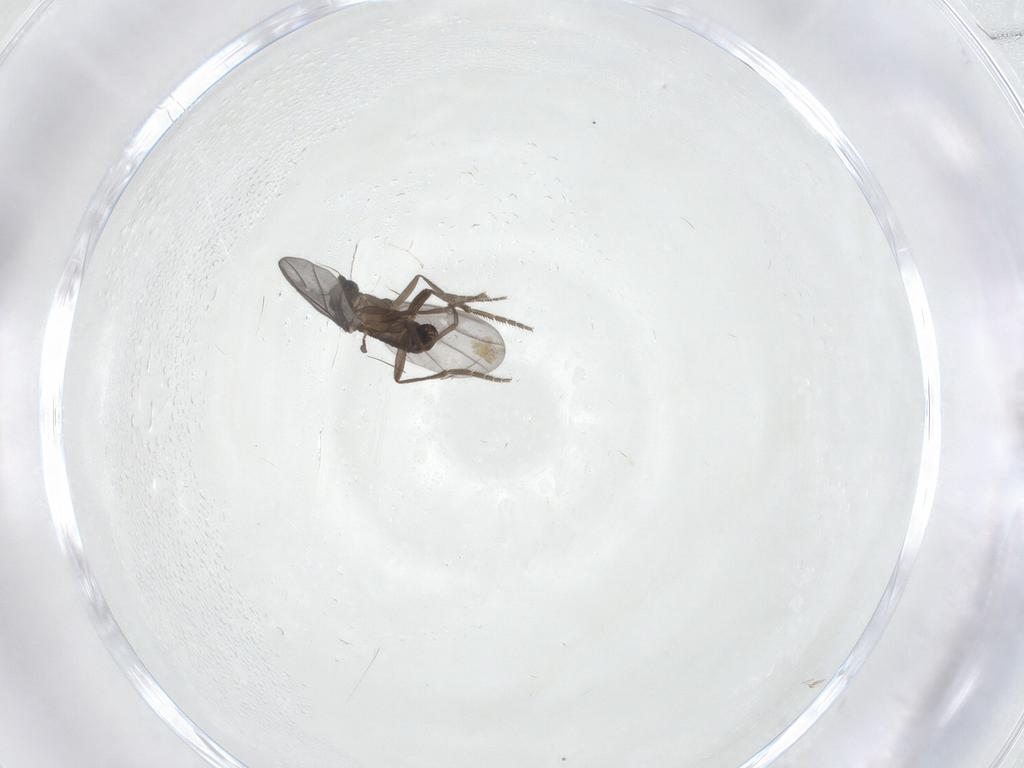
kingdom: Animalia
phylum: Arthropoda
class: Insecta
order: Diptera
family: Phoridae
